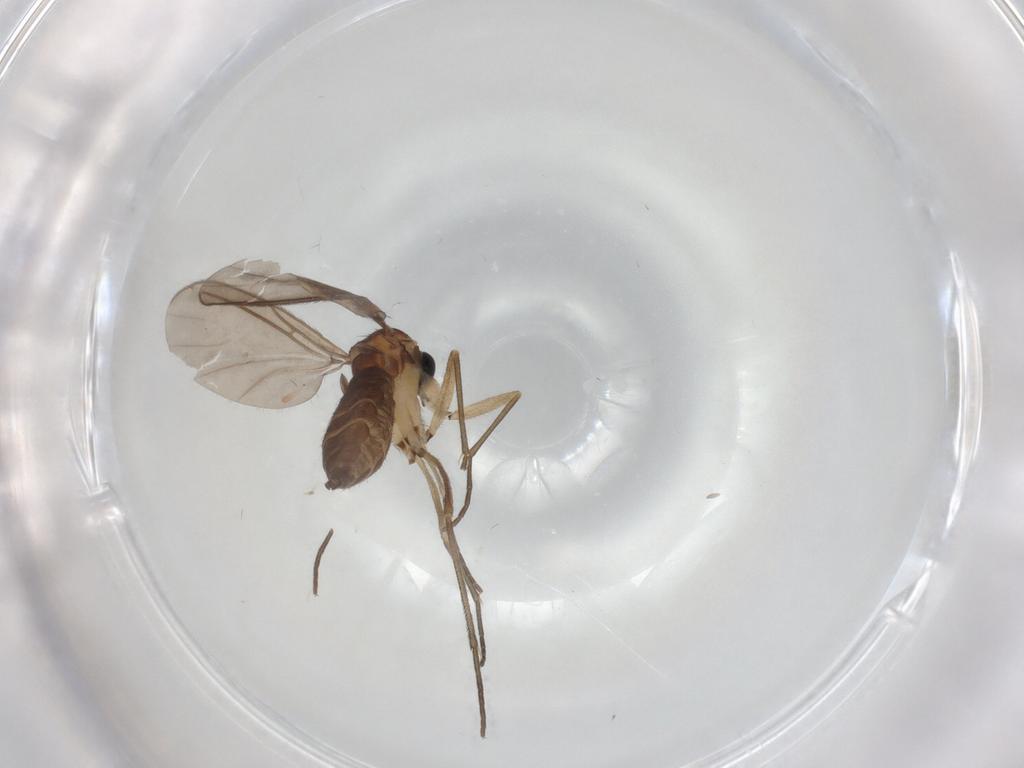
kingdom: Animalia
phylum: Arthropoda
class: Insecta
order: Diptera
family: Sciaridae
